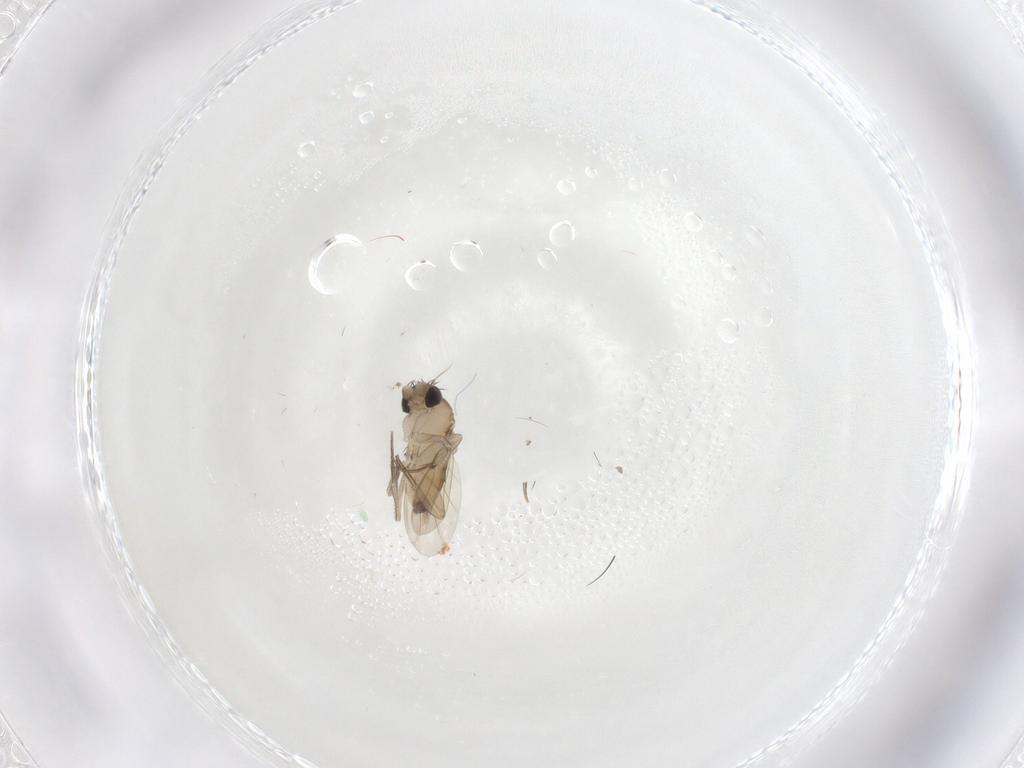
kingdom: Animalia
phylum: Arthropoda
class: Insecta
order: Diptera
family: Phoridae
